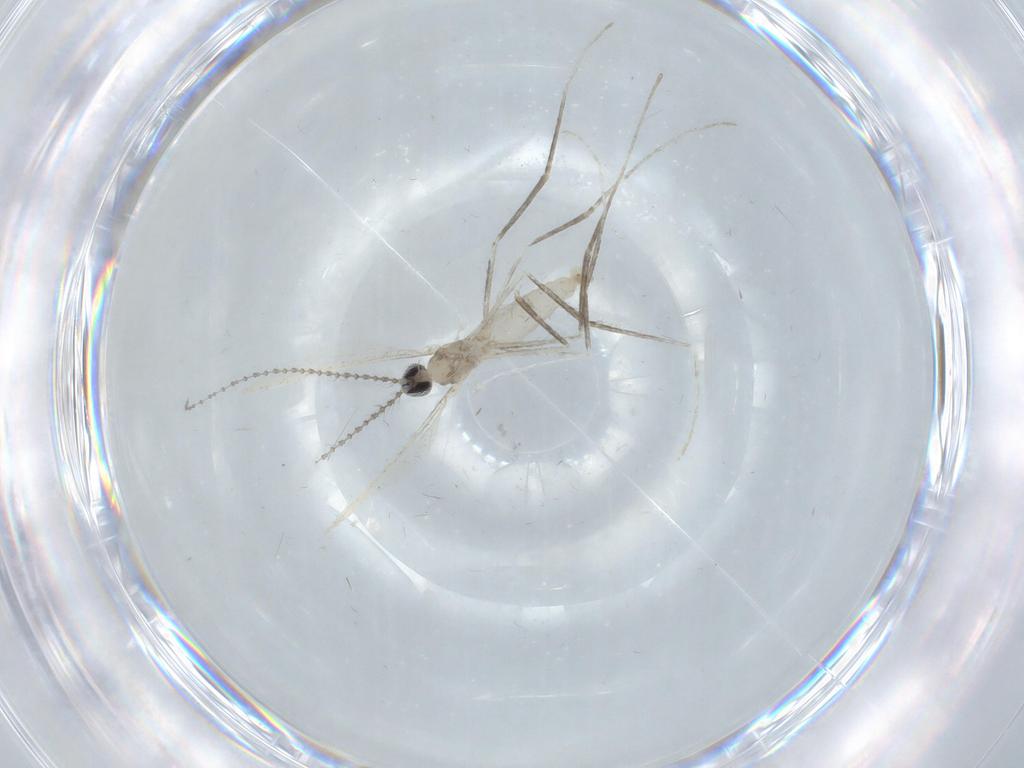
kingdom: Animalia
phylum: Arthropoda
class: Insecta
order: Diptera
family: Cecidomyiidae
